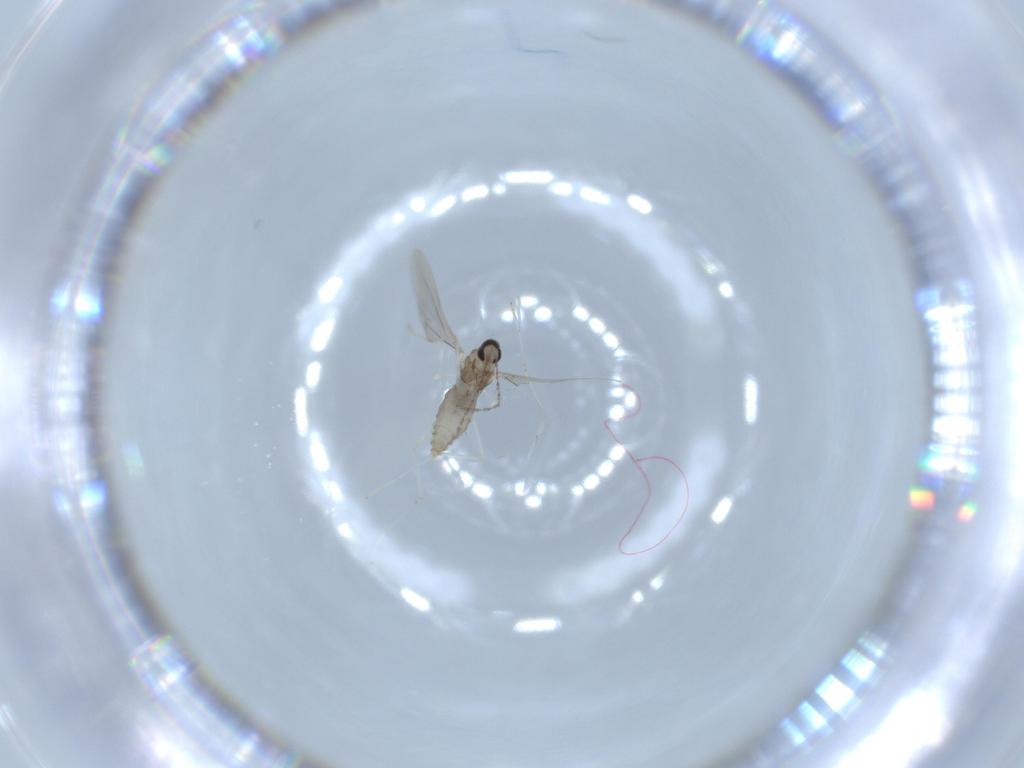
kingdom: Animalia
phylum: Arthropoda
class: Insecta
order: Diptera
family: Cecidomyiidae
